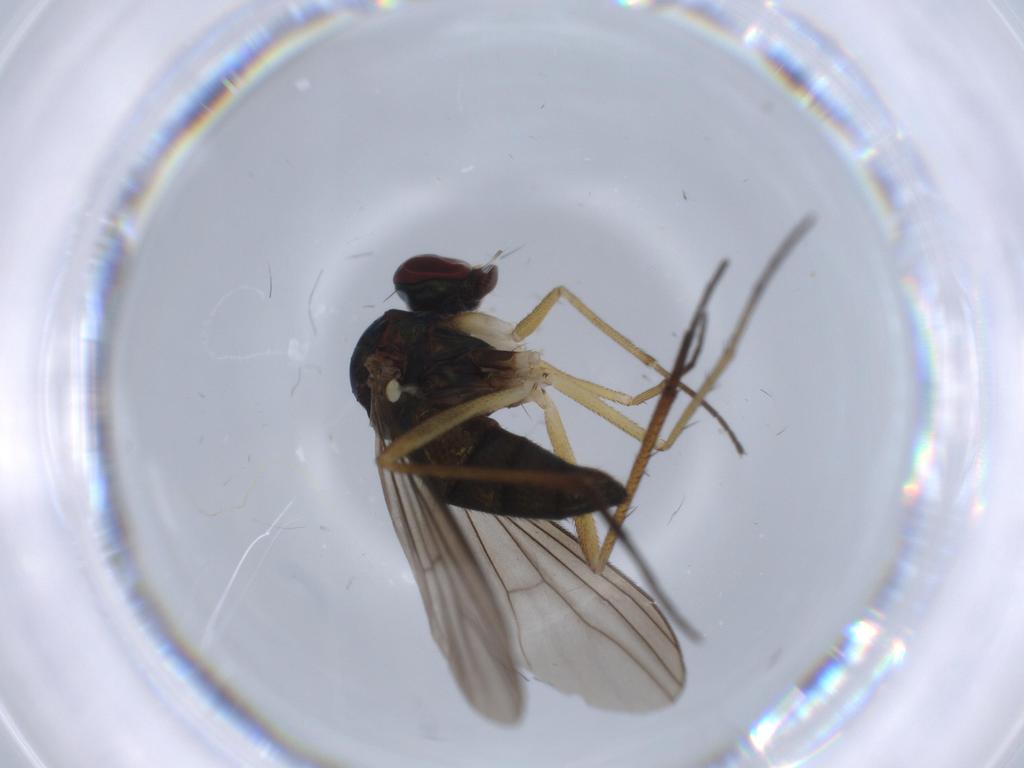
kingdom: Animalia
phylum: Arthropoda
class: Insecta
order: Diptera
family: Dolichopodidae
